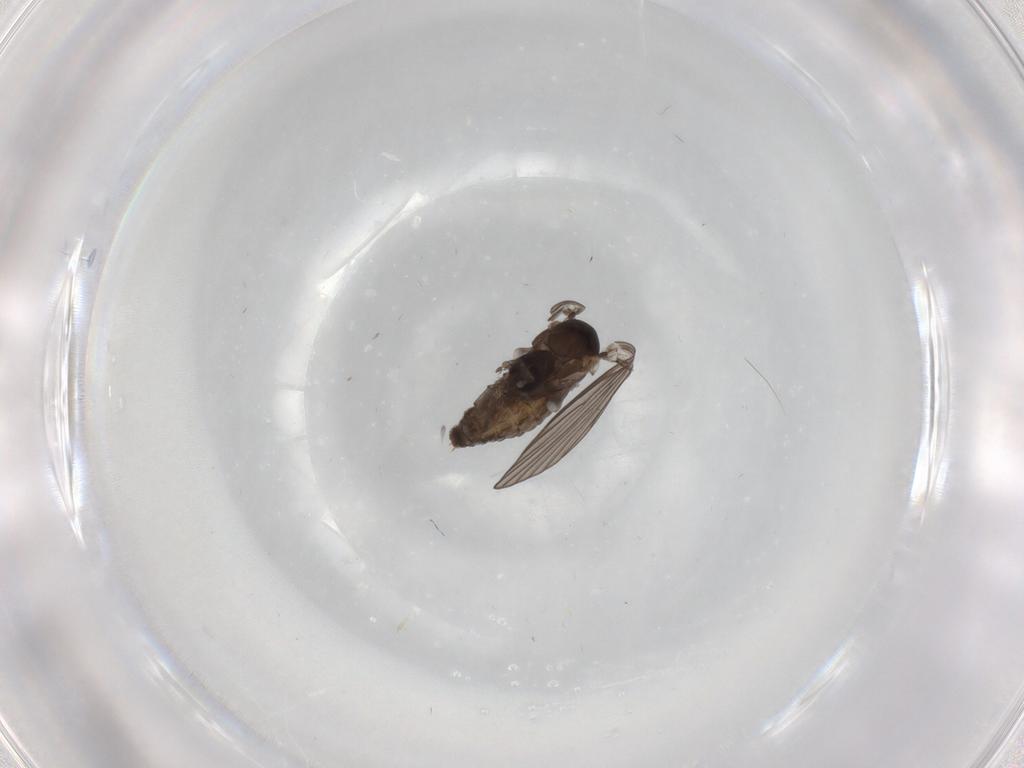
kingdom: Animalia
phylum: Arthropoda
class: Insecta
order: Diptera
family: Psychodidae
